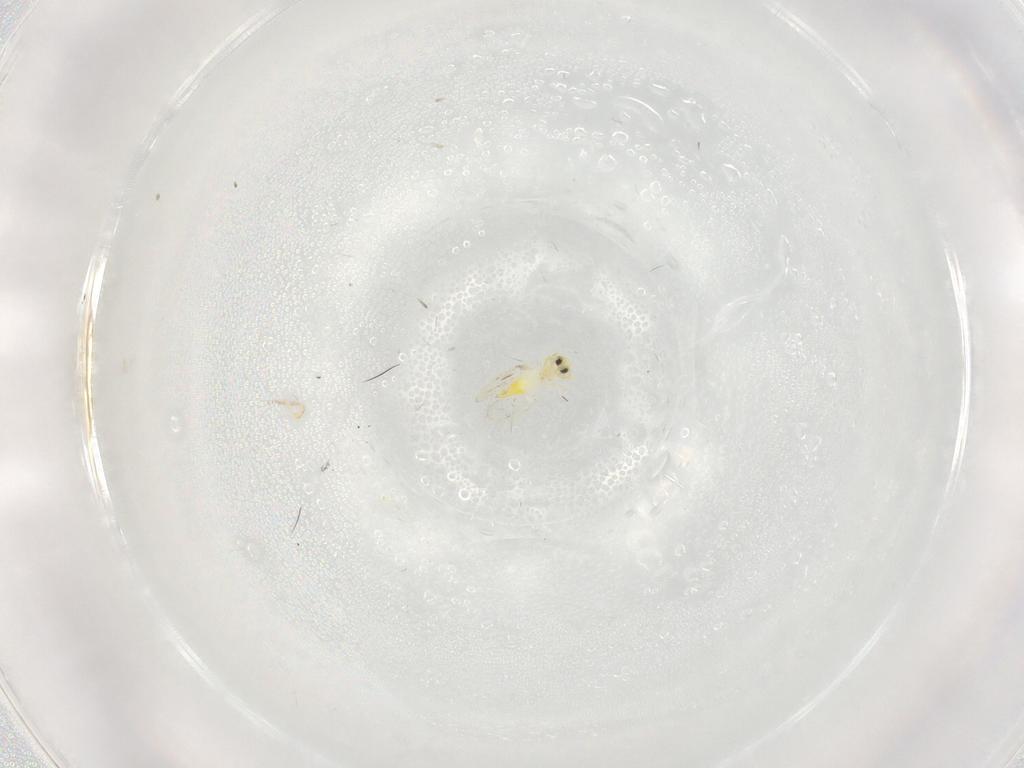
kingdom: Animalia
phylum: Arthropoda
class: Insecta
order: Hemiptera
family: Aleyrodidae
